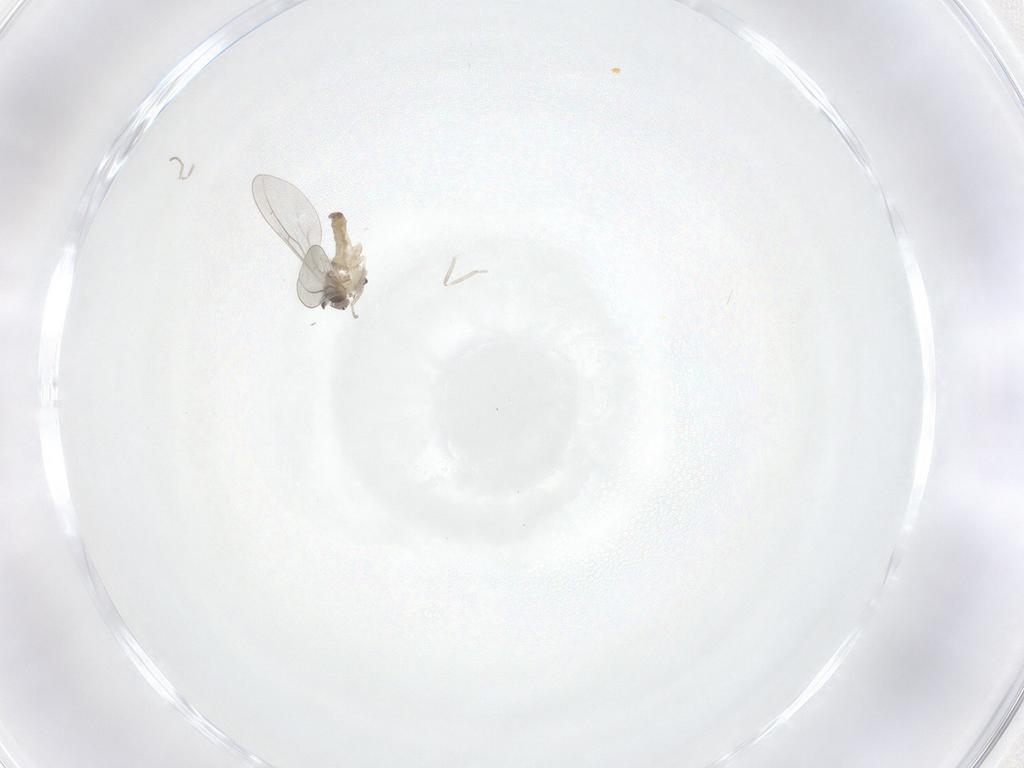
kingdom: Animalia
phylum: Arthropoda
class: Insecta
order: Diptera
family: Cecidomyiidae
